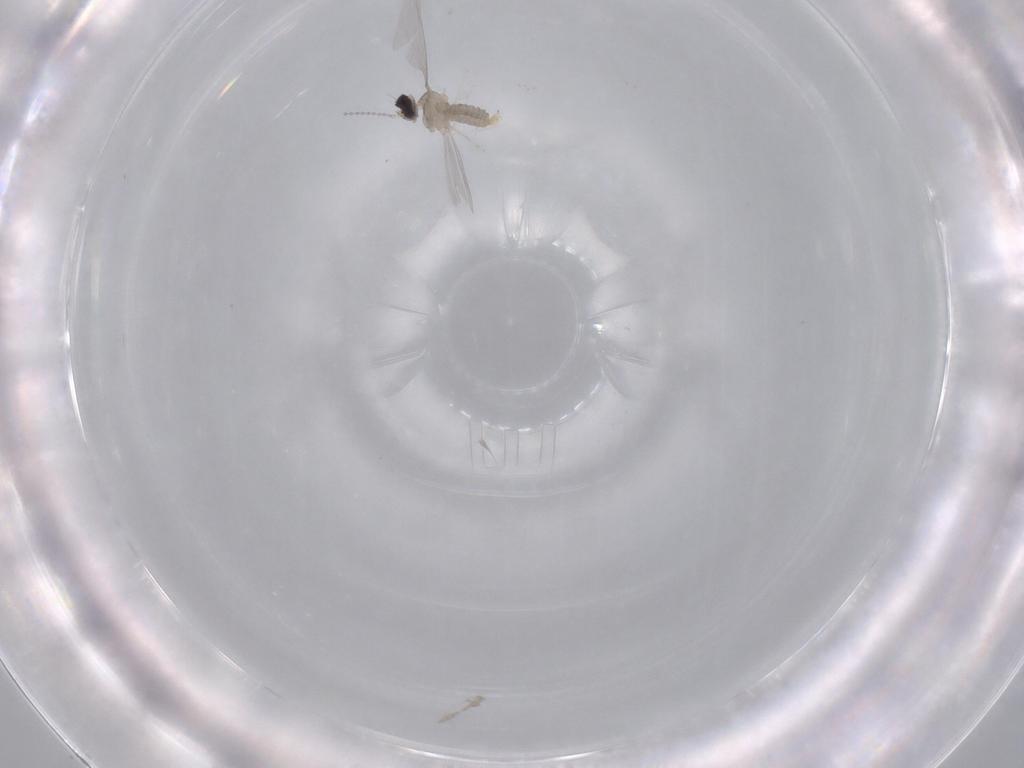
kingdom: Animalia
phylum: Arthropoda
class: Insecta
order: Diptera
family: Cecidomyiidae
